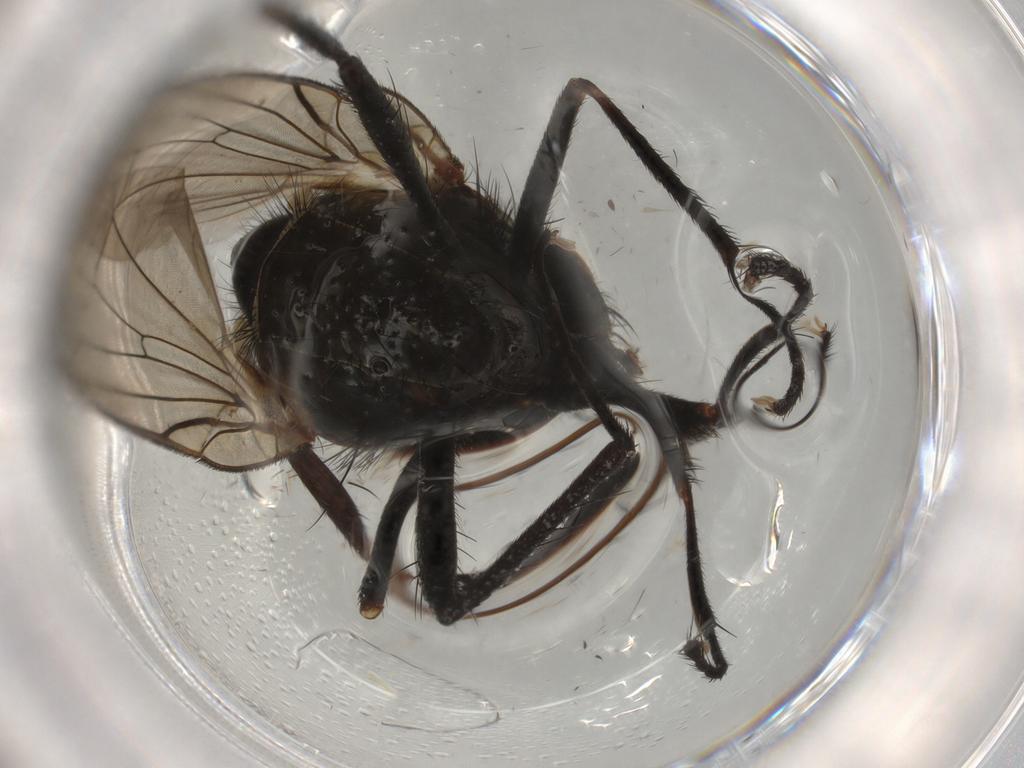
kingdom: Animalia
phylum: Arthropoda
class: Insecta
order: Diptera
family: Anthomyiidae
